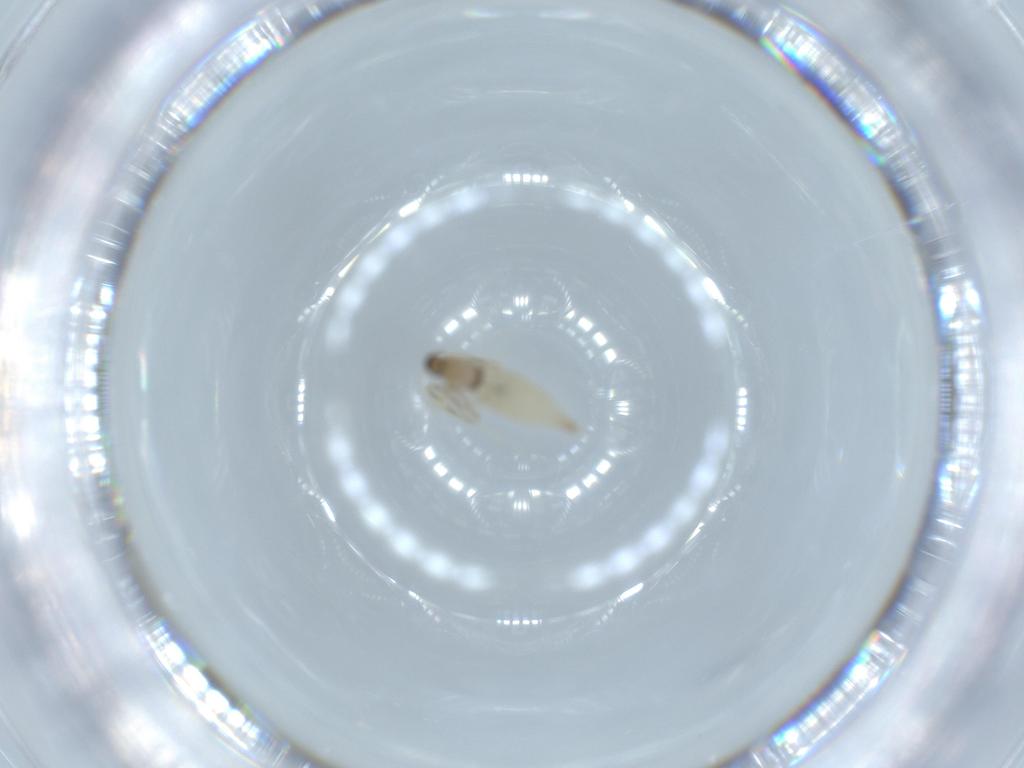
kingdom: Animalia
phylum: Arthropoda
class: Insecta
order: Diptera
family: Cecidomyiidae
